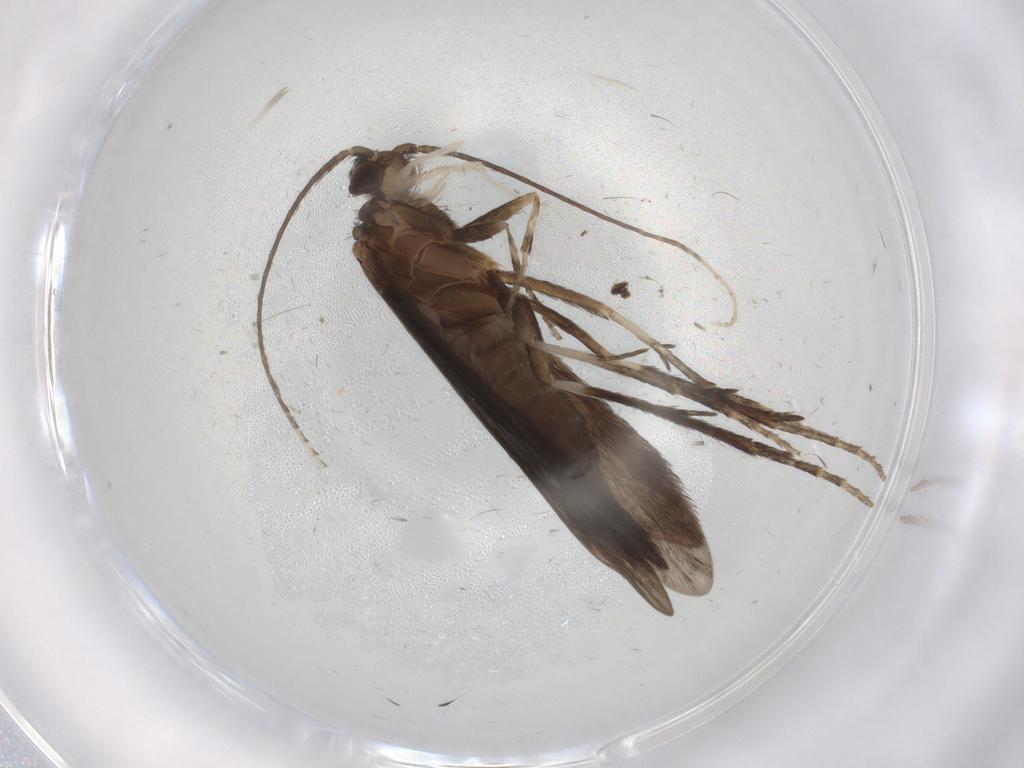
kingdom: Animalia
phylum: Arthropoda
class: Insecta
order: Trichoptera
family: Xiphocentronidae
